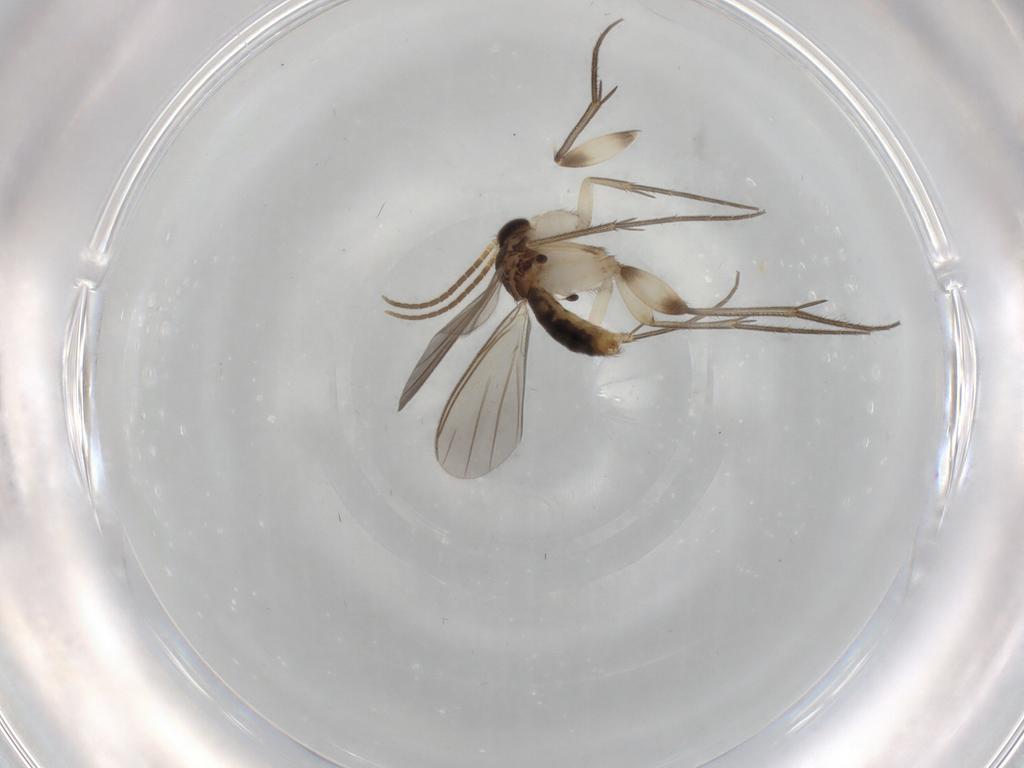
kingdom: Animalia
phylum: Arthropoda
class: Insecta
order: Diptera
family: Mycetophilidae
